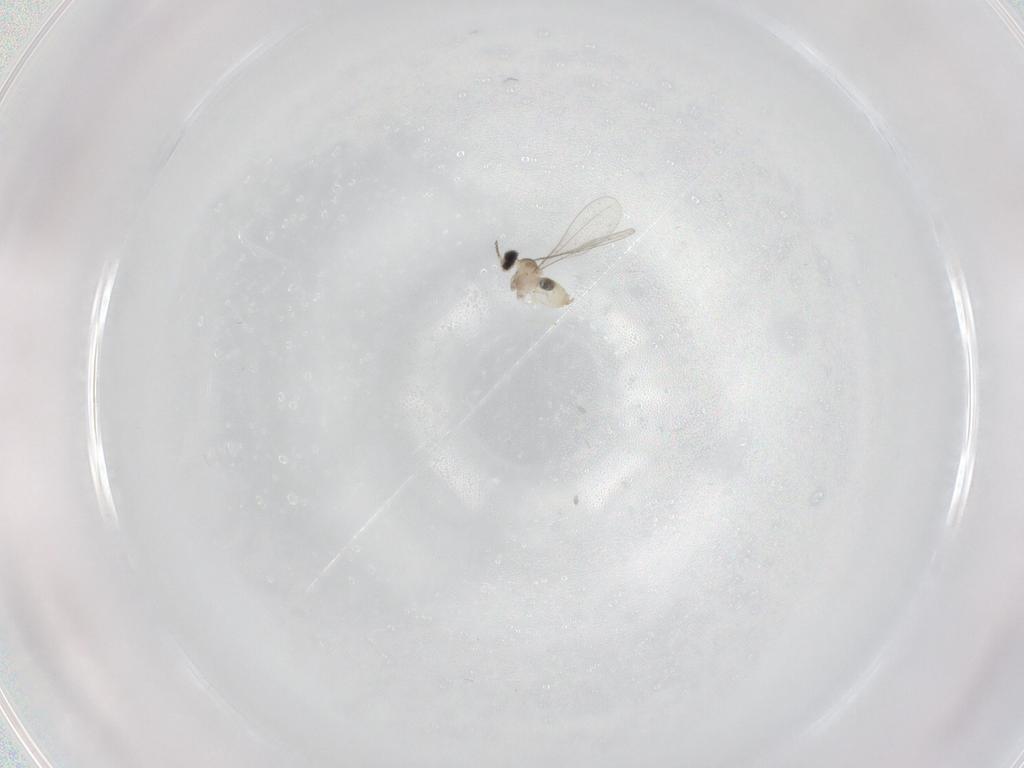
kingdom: Animalia
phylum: Arthropoda
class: Insecta
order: Diptera
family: Cecidomyiidae
